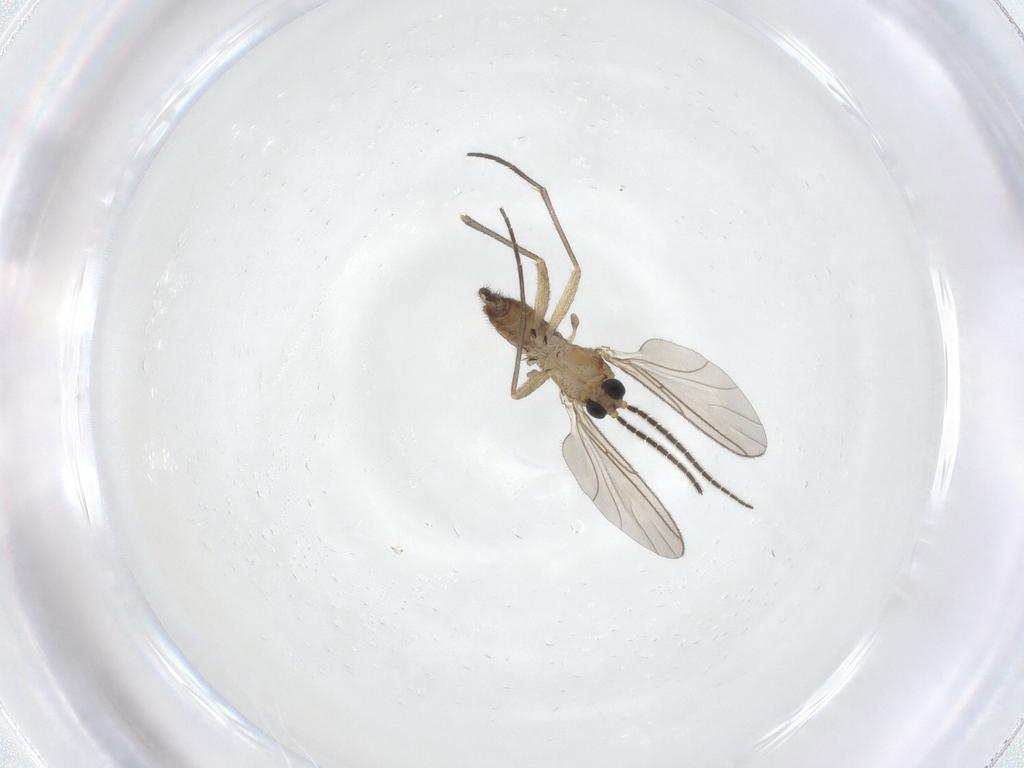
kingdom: Animalia
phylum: Arthropoda
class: Insecta
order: Diptera
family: Sciaridae
